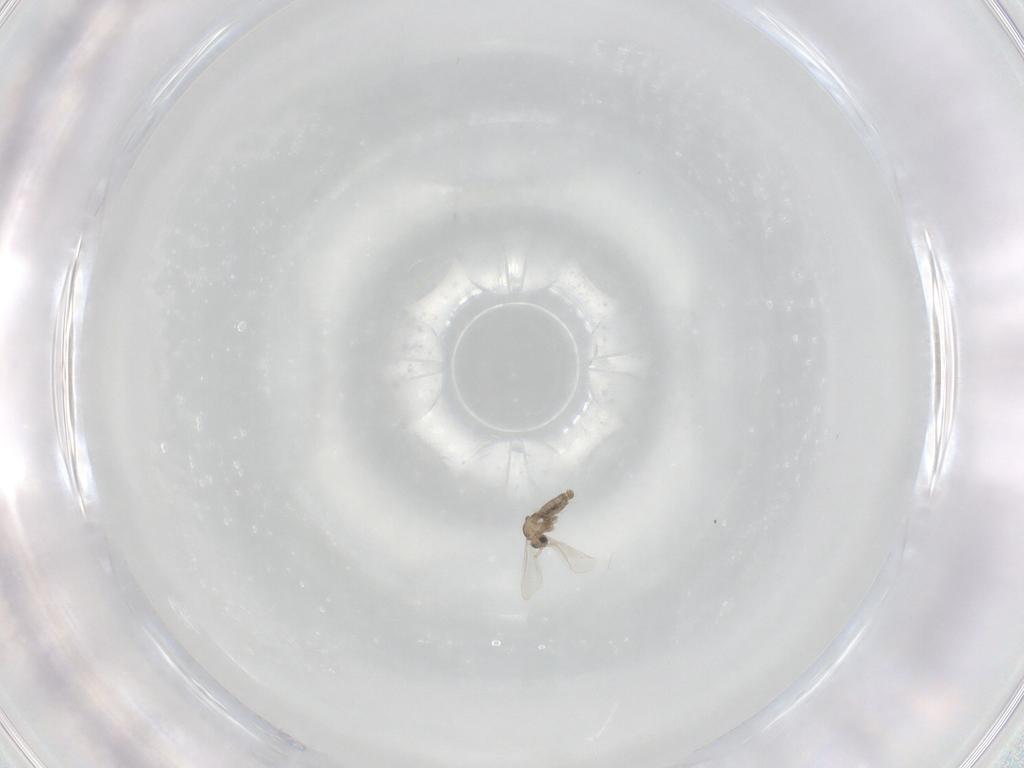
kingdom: Animalia
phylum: Arthropoda
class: Insecta
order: Diptera
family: Cecidomyiidae
